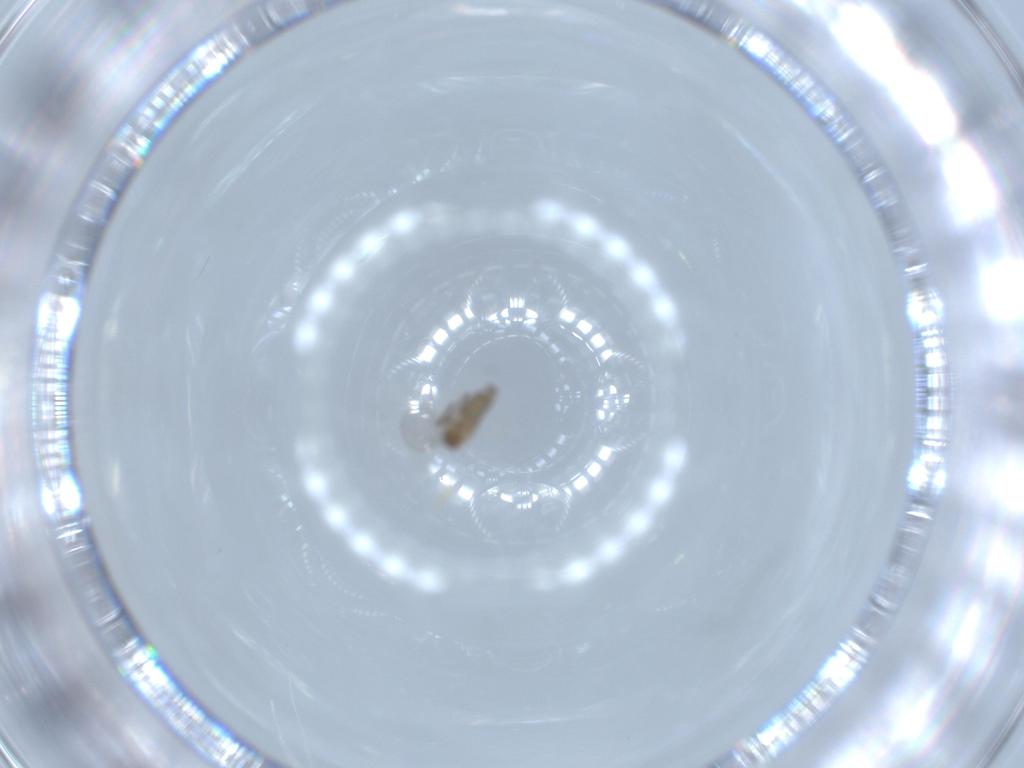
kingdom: Animalia
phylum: Arthropoda
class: Insecta
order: Diptera
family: Cecidomyiidae
